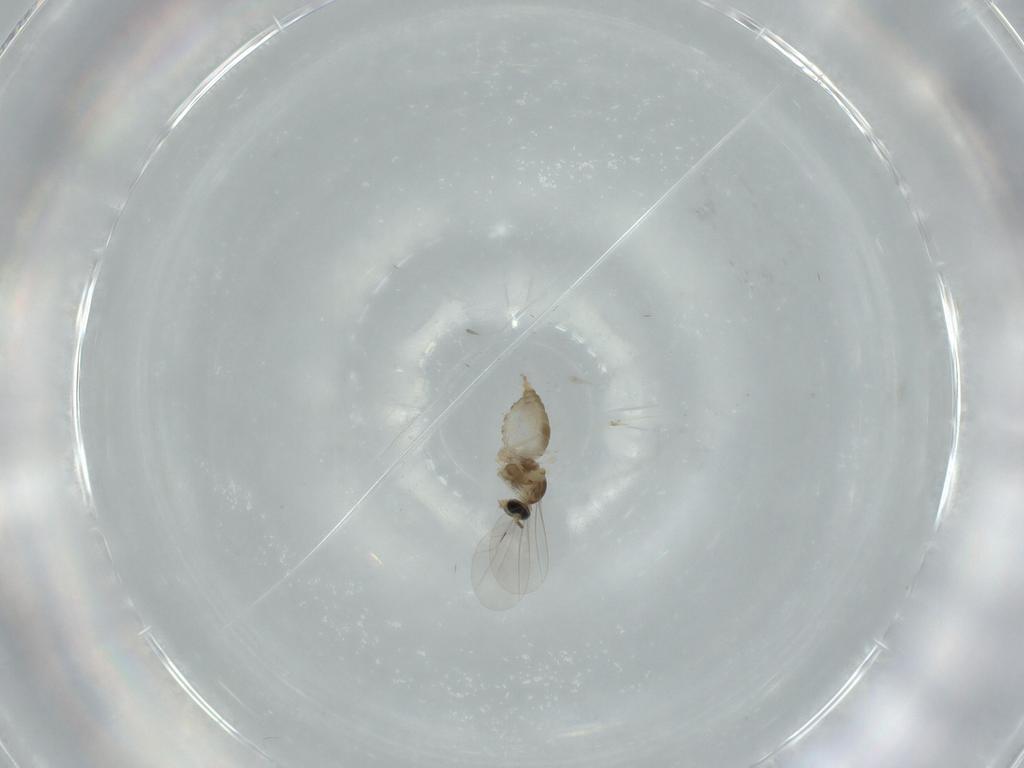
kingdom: Animalia
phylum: Arthropoda
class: Insecta
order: Diptera
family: Cecidomyiidae
